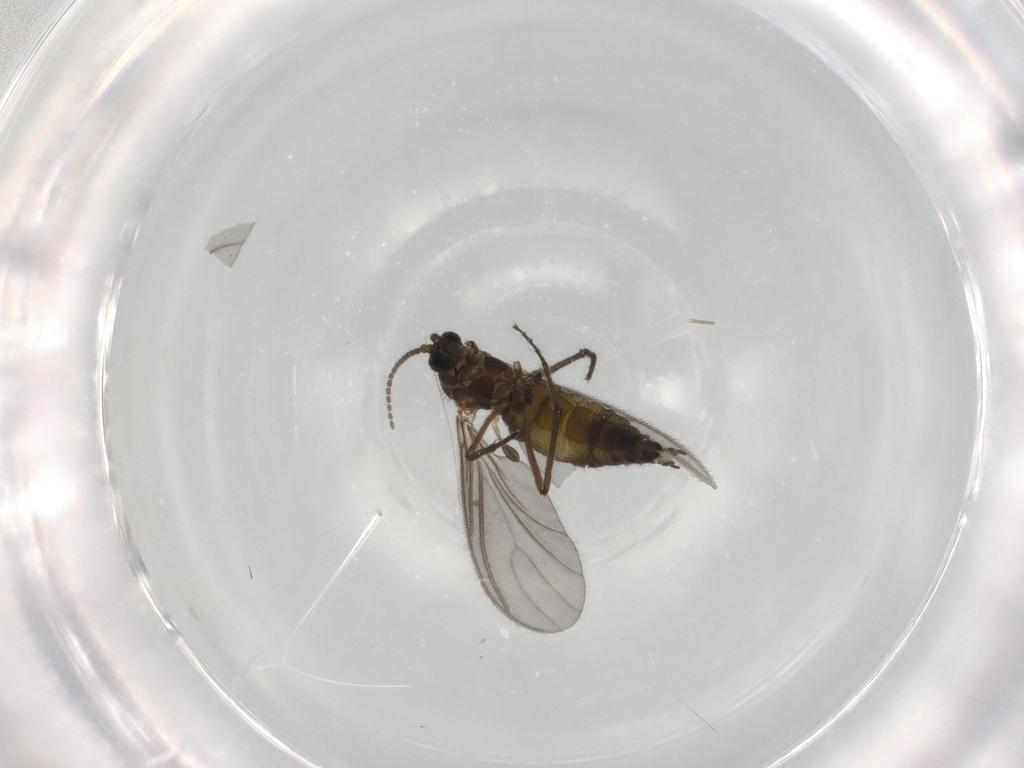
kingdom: Animalia
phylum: Arthropoda
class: Insecta
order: Diptera
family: Sciaridae
